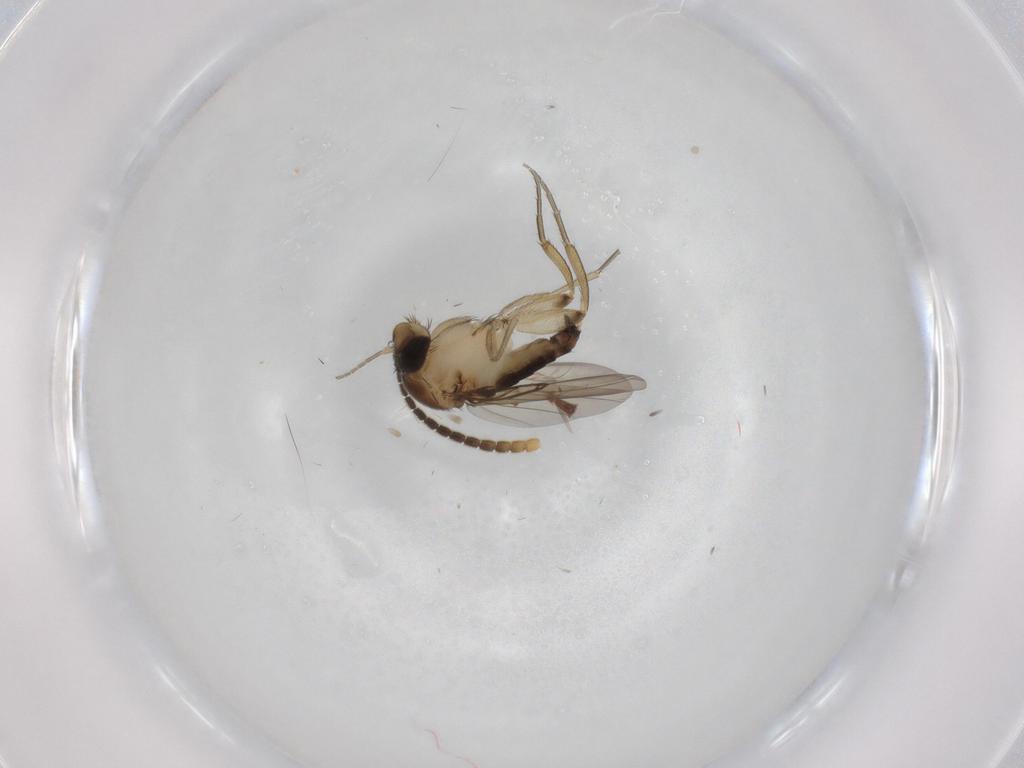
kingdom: Animalia
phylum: Arthropoda
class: Insecta
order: Diptera
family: Phoridae
